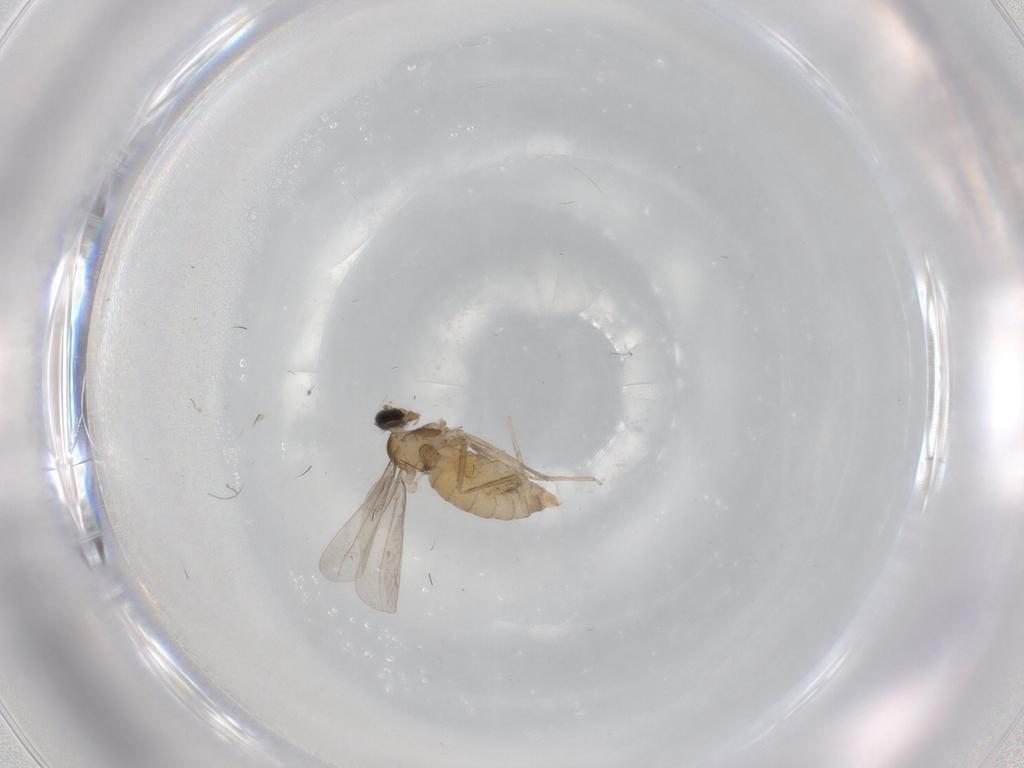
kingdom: Animalia
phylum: Arthropoda
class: Insecta
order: Diptera
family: Cecidomyiidae
